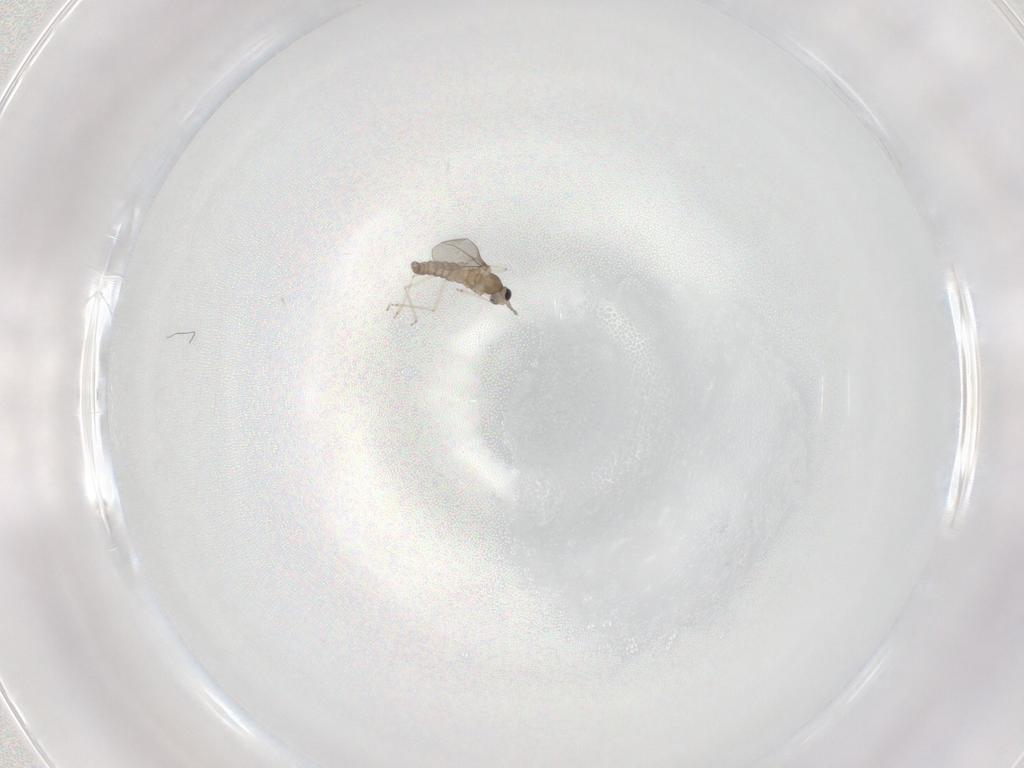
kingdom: Animalia
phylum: Arthropoda
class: Insecta
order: Diptera
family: Cecidomyiidae
